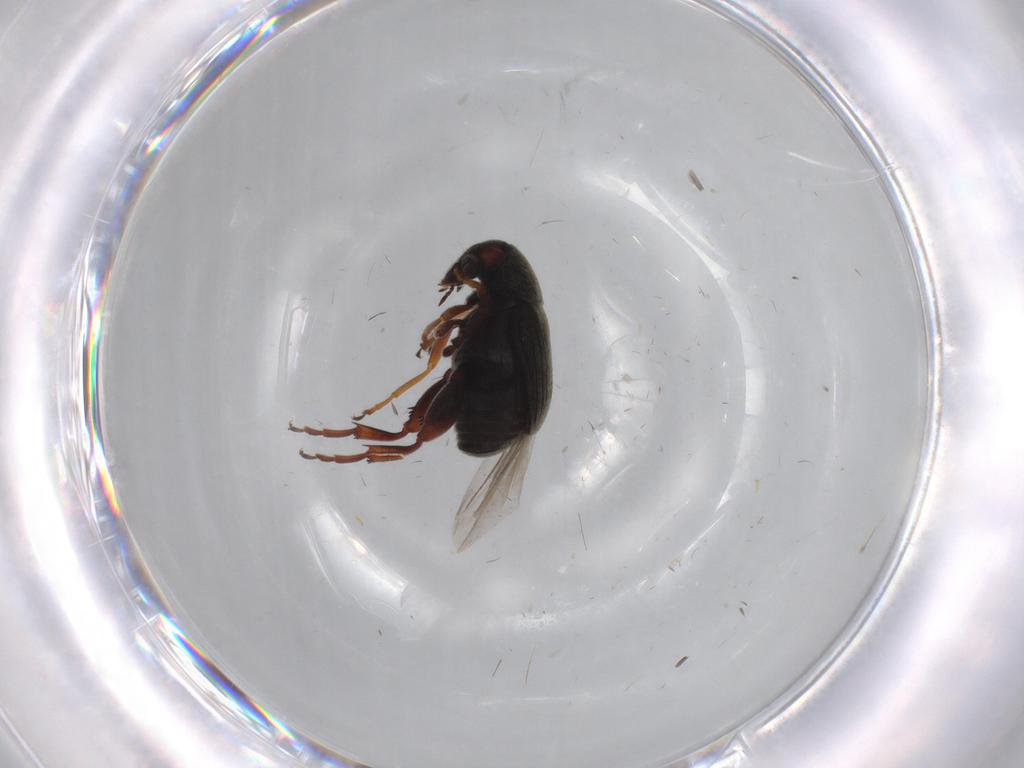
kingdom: Animalia
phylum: Arthropoda
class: Insecta
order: Coleoptera
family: Chrysomelidae
